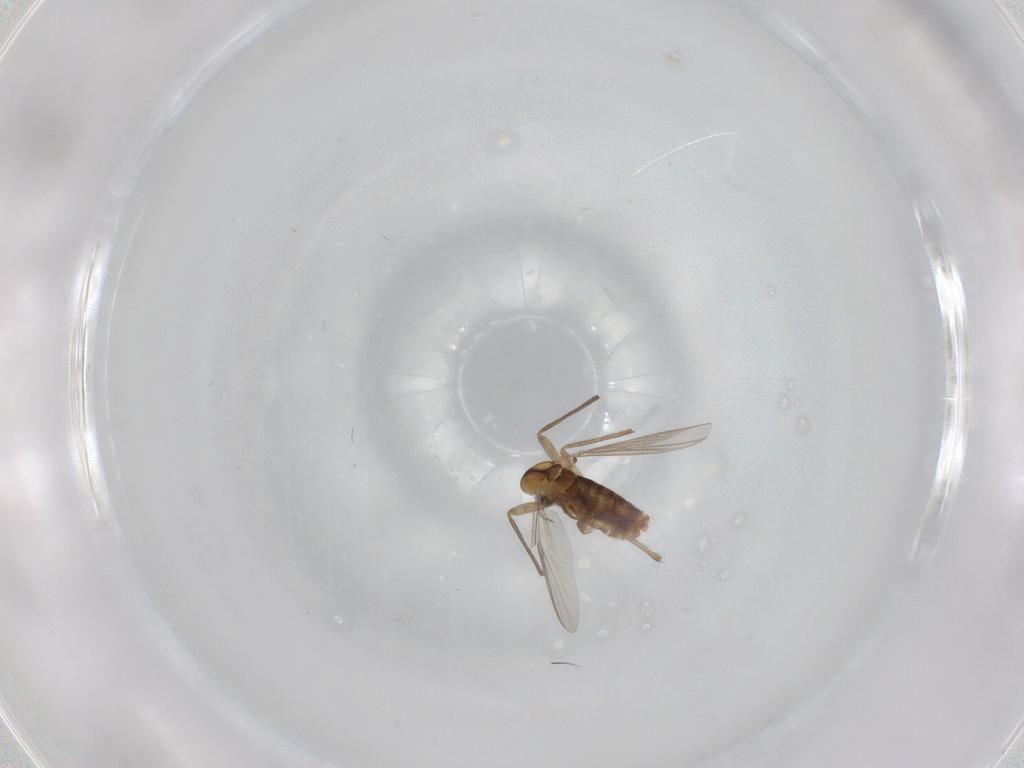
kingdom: Animalia
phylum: Arthropoda
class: Insecta
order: Diptera
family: Chironomidae
